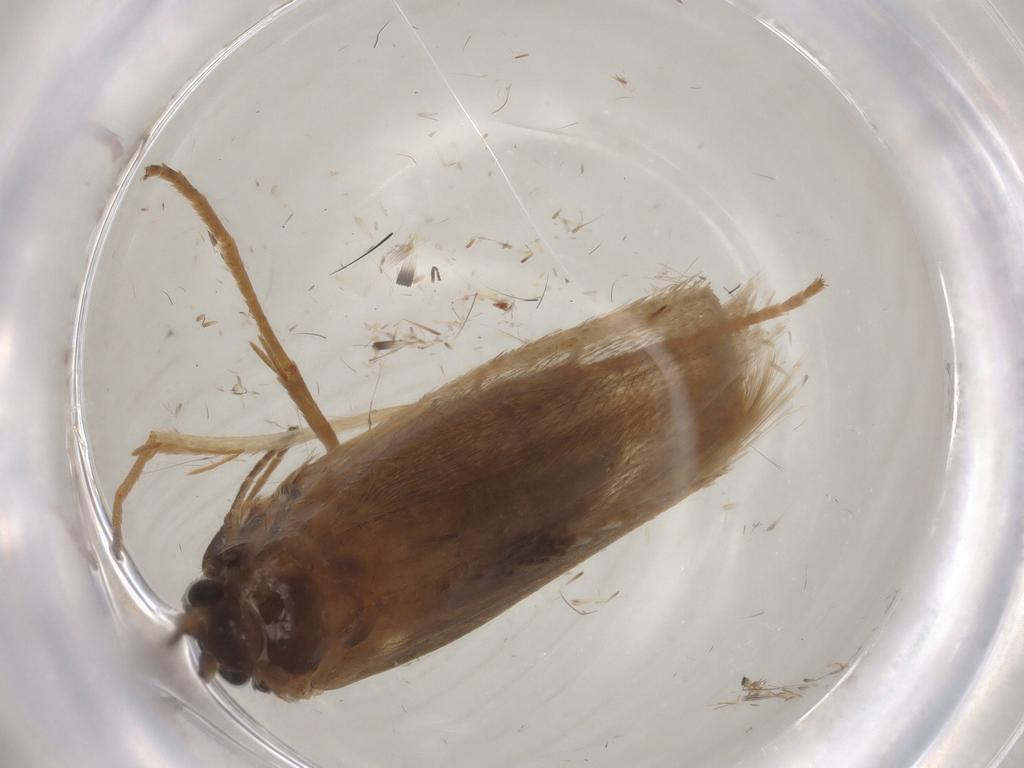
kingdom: Animalia
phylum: Arthropoda
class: Insecta
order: Lepidoptera
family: Adelidae
